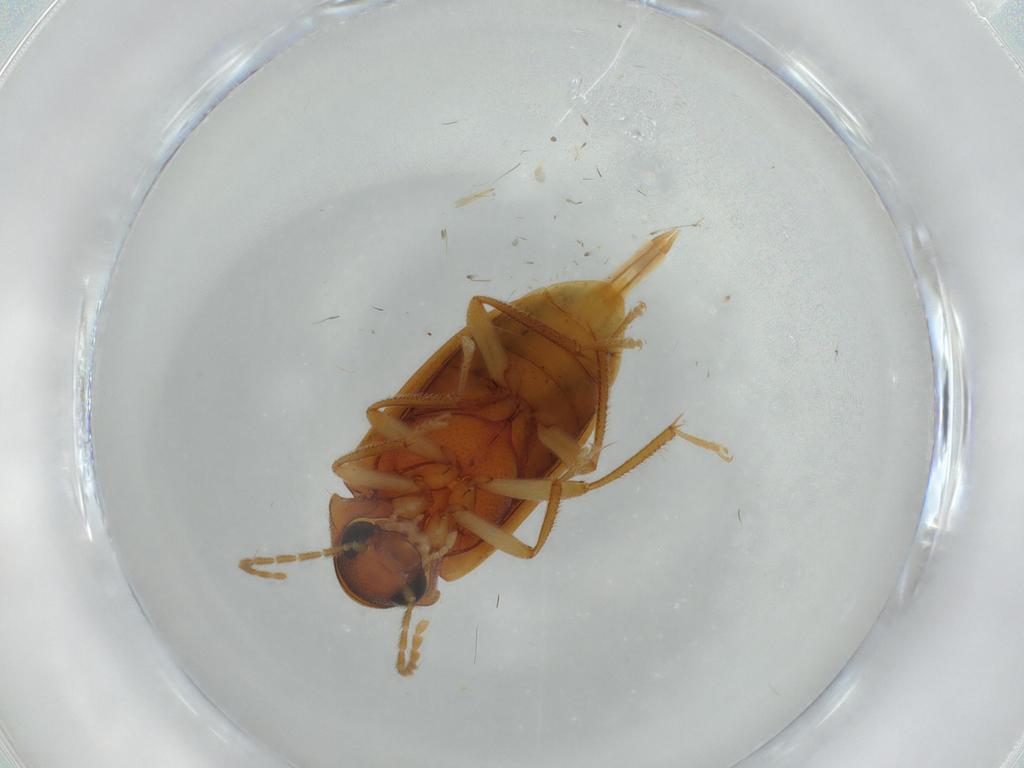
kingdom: Animalia
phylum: Arthropoda
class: Insecta
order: Coleoptera
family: Ptilodactylidae
